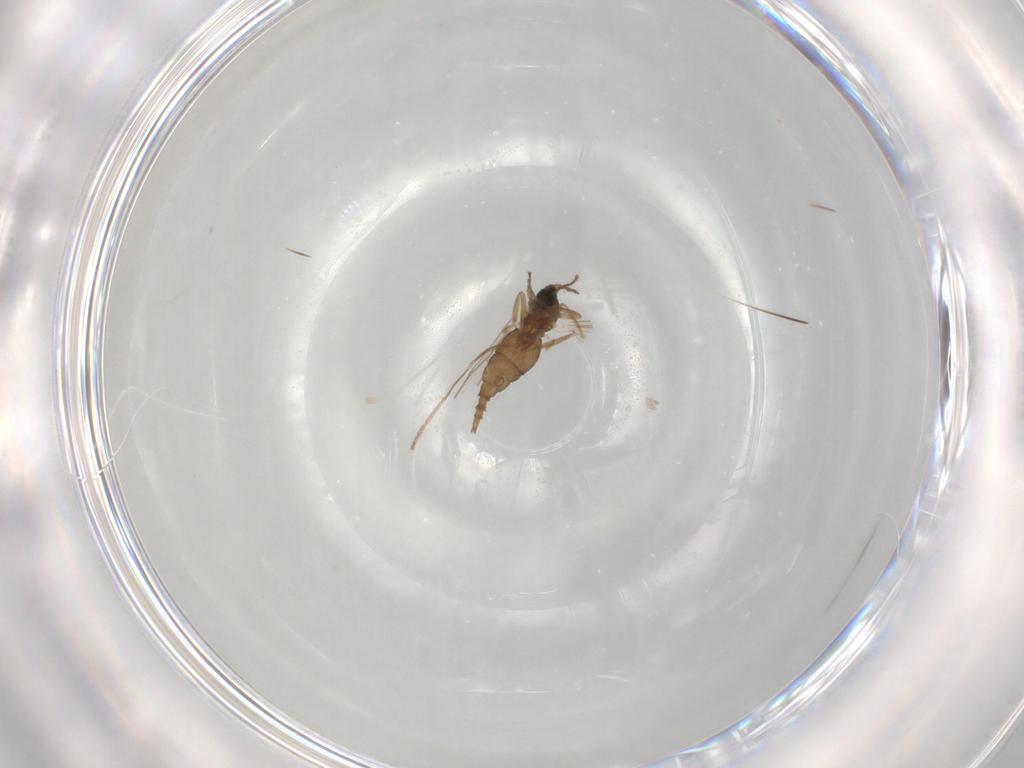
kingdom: Animalia
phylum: Arthropoda
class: Insecta
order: Diptera
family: Cecidomyiidae
